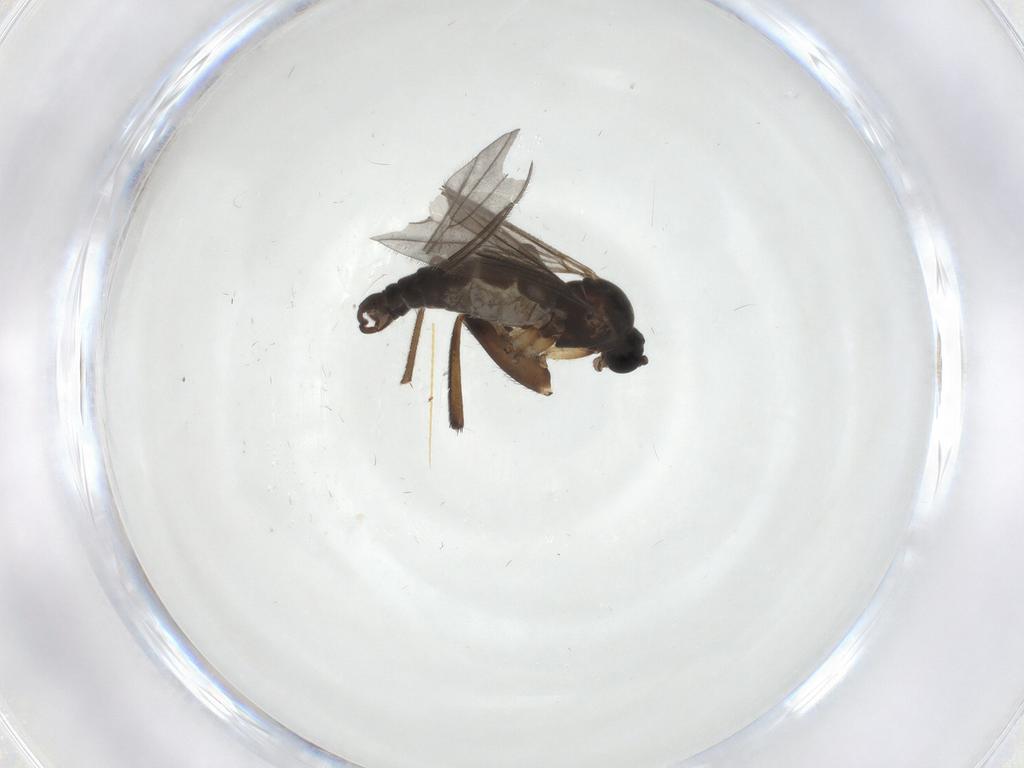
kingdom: Animalia
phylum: Arthropoda
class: Insecta
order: Diptera
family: Phoridae
